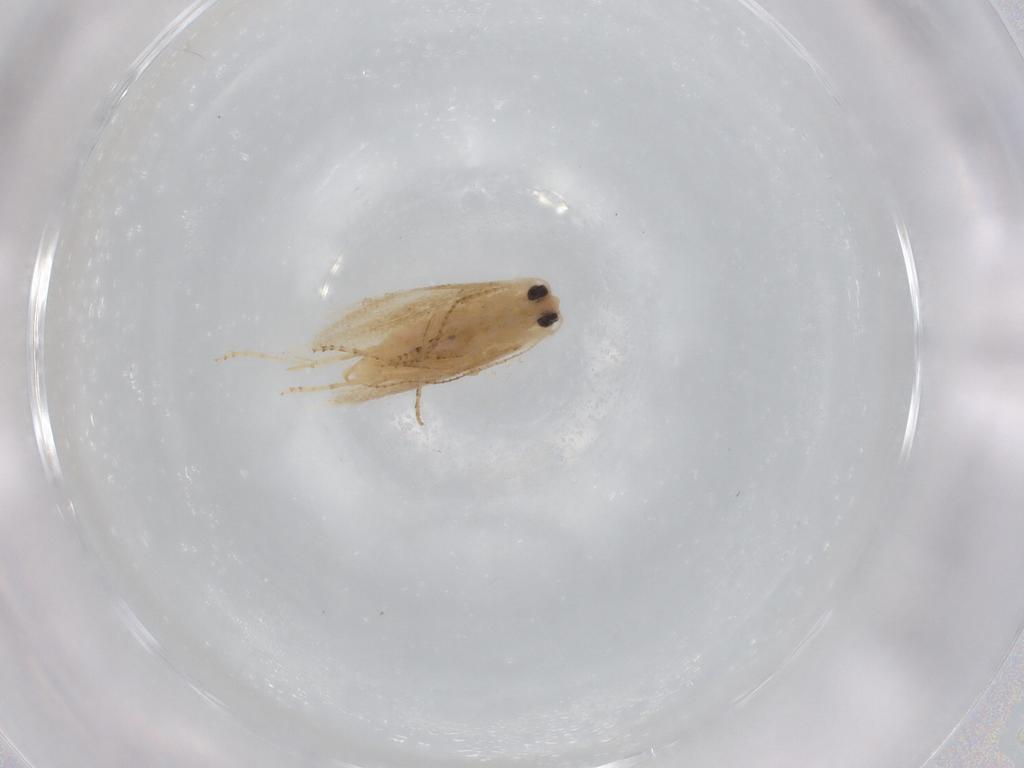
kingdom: Animalia
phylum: Arthropoda
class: Insecta
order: Lepidoptera
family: Bucculatricidae
